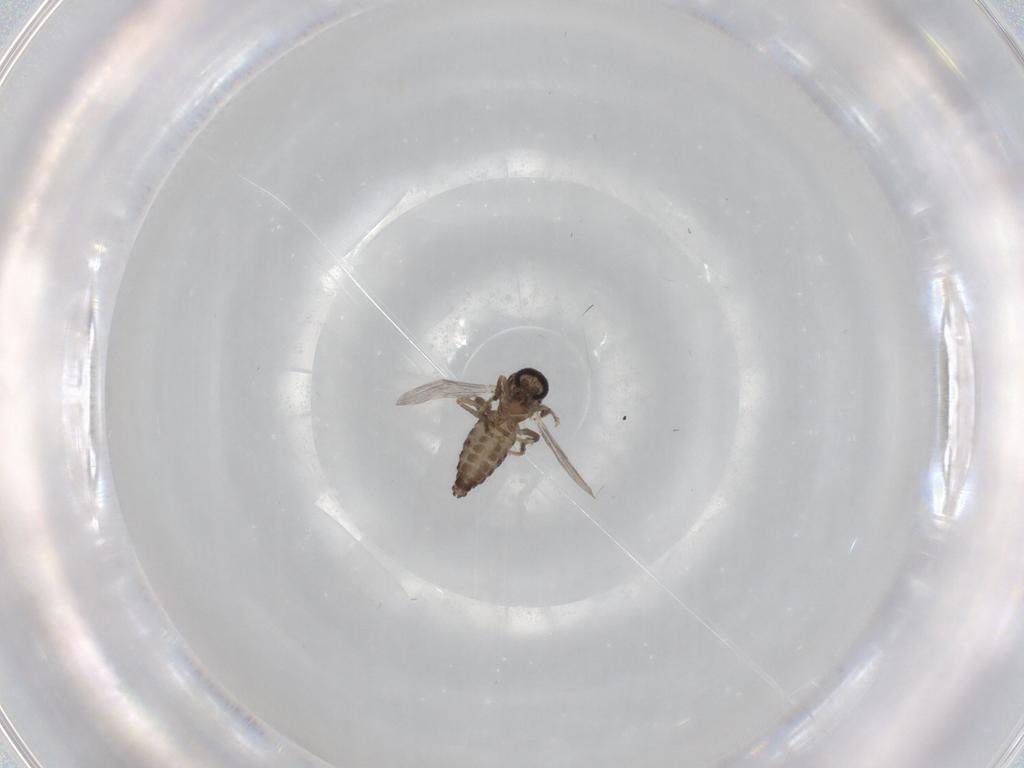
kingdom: Animalia
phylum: Arthropoda
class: Insecta
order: Diptera
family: Ceratopogonidae
